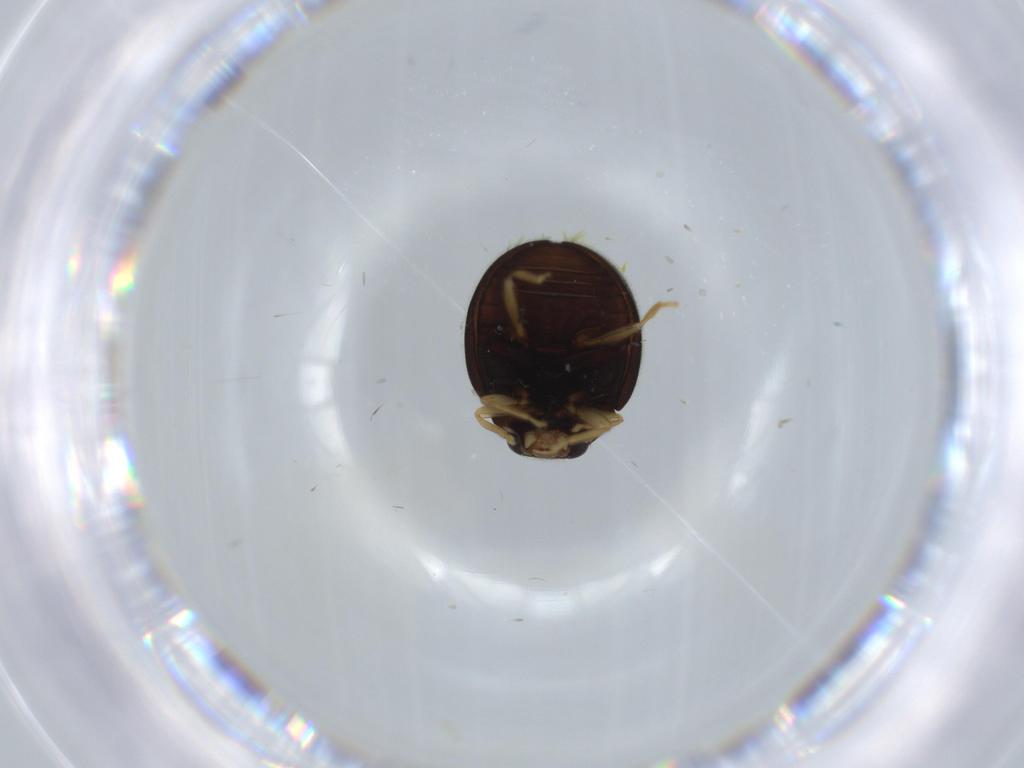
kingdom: Animalia
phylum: Arthropoda
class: Insecta
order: Coleoptera
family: Coccinellidae
